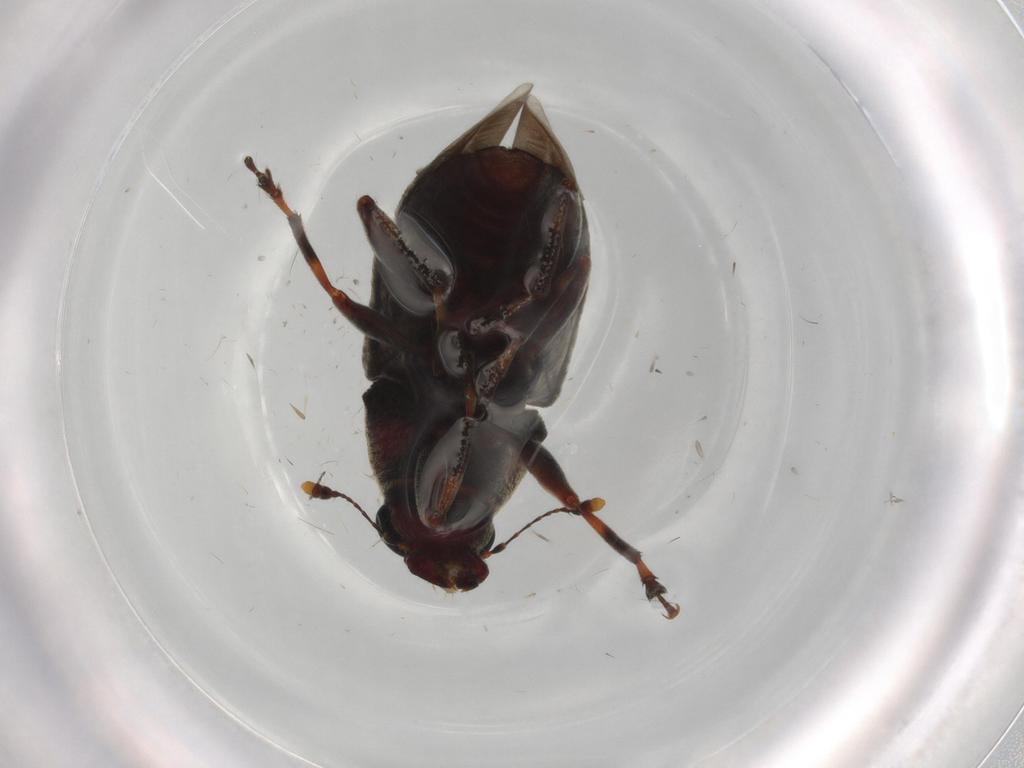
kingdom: Animalia
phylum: Arthropoda
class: Insecta
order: Coleoptera
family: Anthribidae
